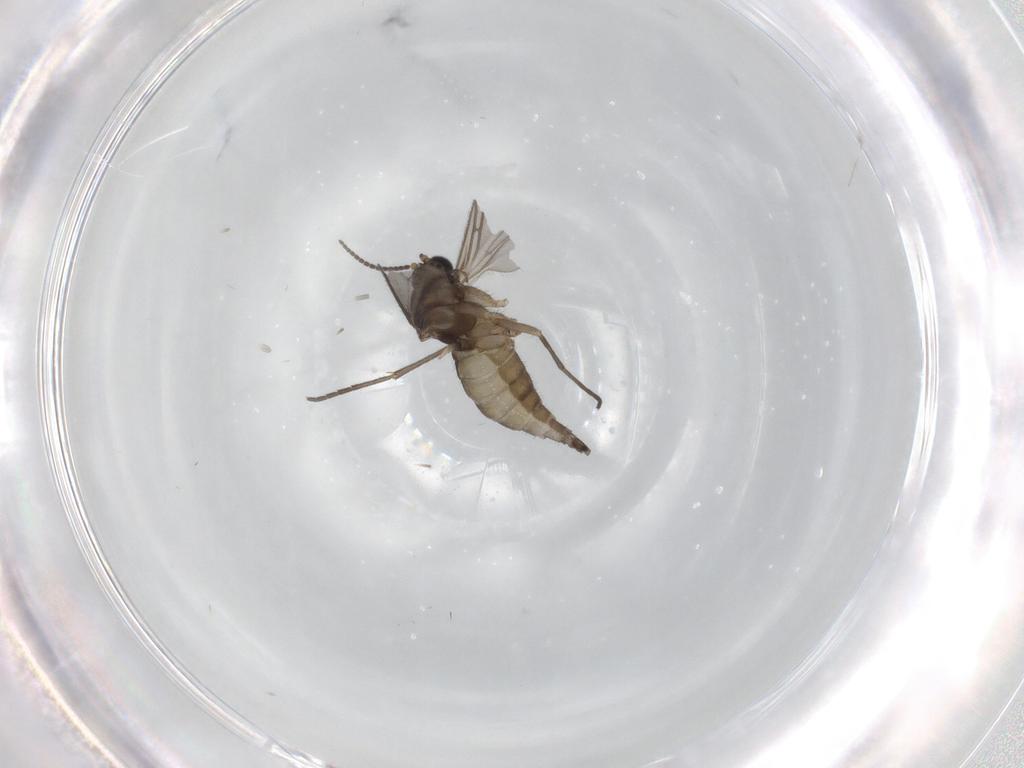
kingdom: Animalia
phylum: Arthropoda
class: Insecta
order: Diptera
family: Sciaridae
